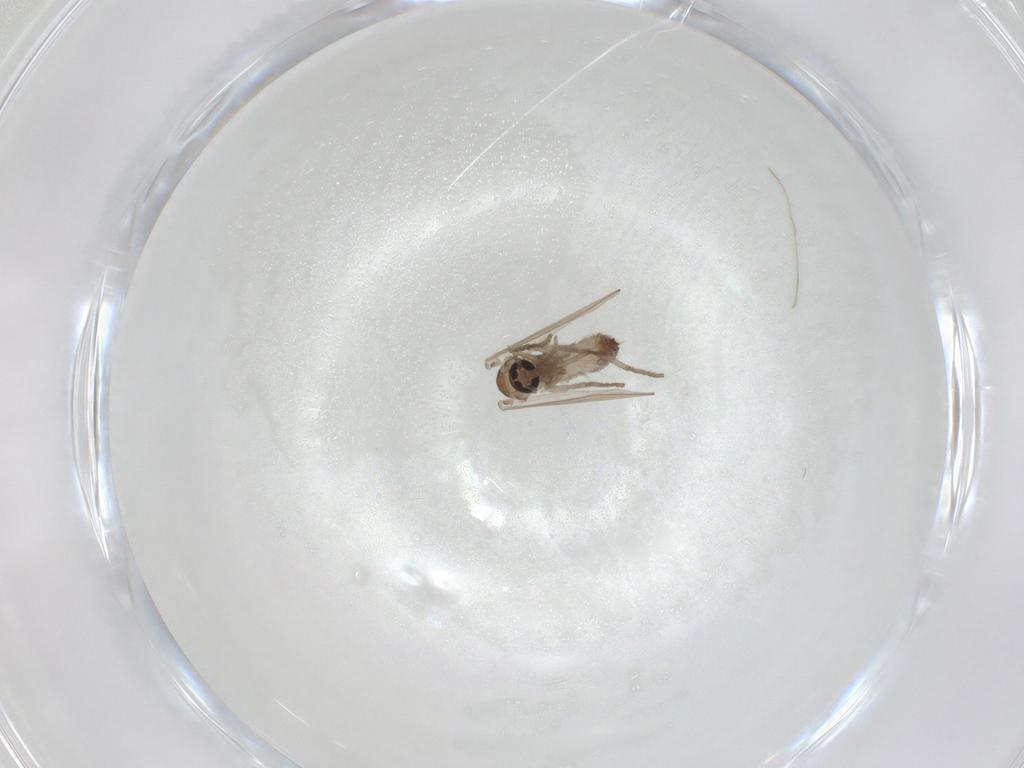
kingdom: Animalia
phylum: Arthropoda
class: Insecta
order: Diptera
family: Psychodidae
